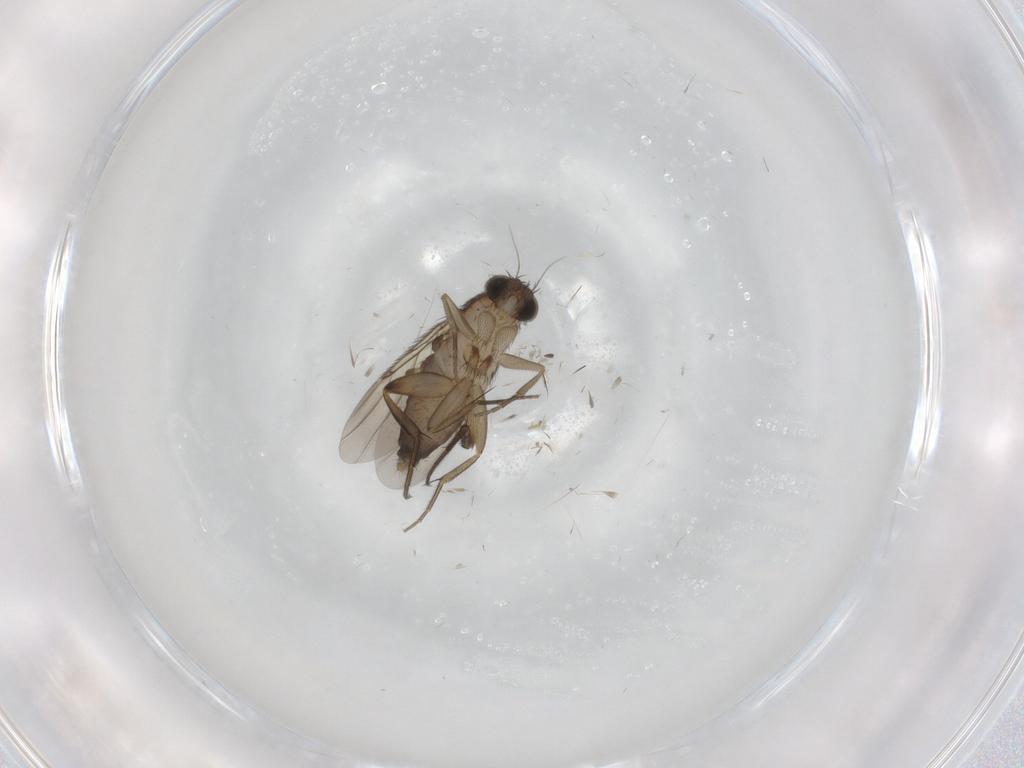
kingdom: Animalia
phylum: Arthropoda
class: Insecta
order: Diptera
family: Phoridae
